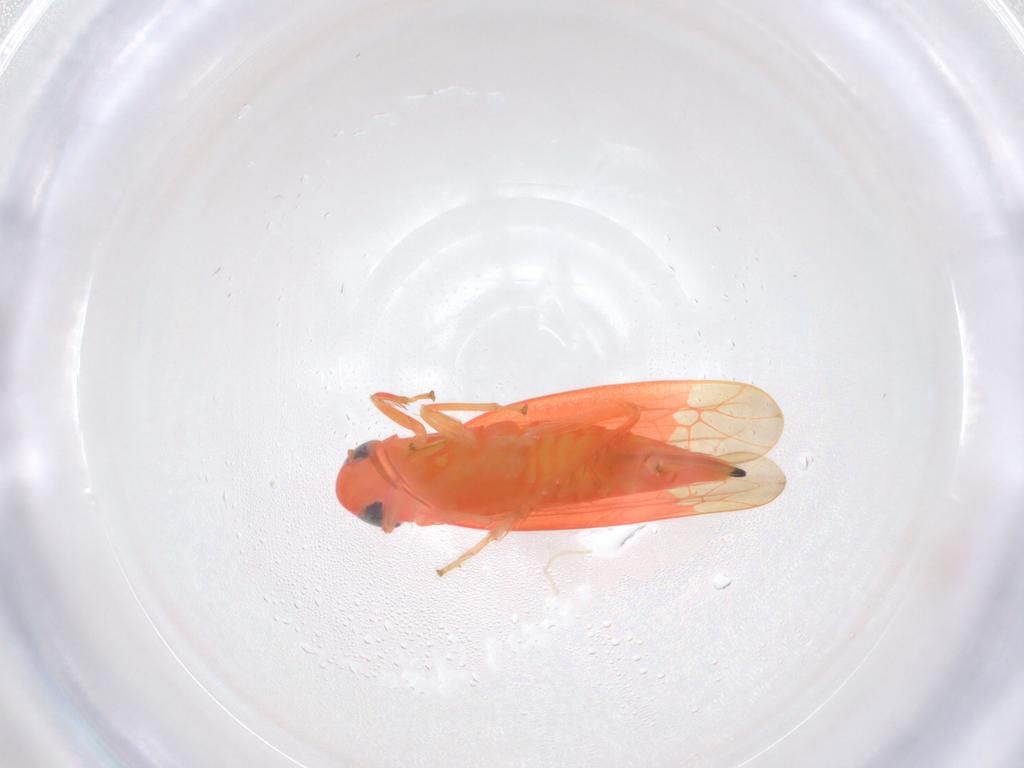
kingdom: Animalia
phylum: Arthropoda
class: Insecta
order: Hemiptera
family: Cicadellidae
